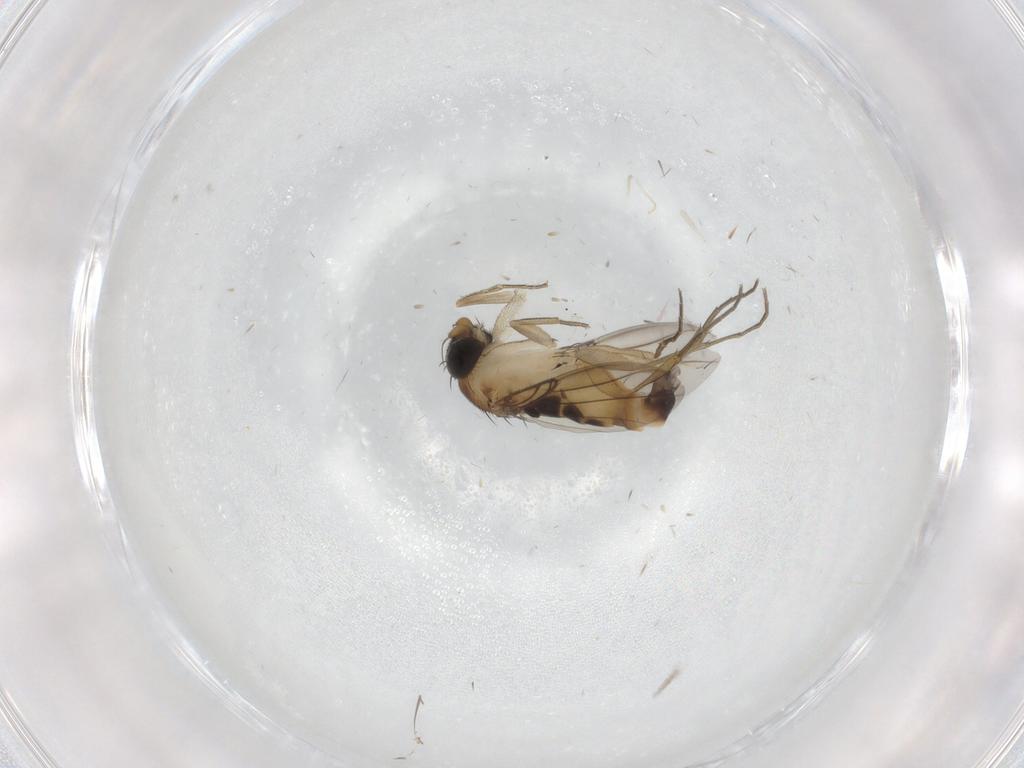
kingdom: Animalia
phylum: Arthropoda
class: Insecta
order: Diptera
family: Phoridae
